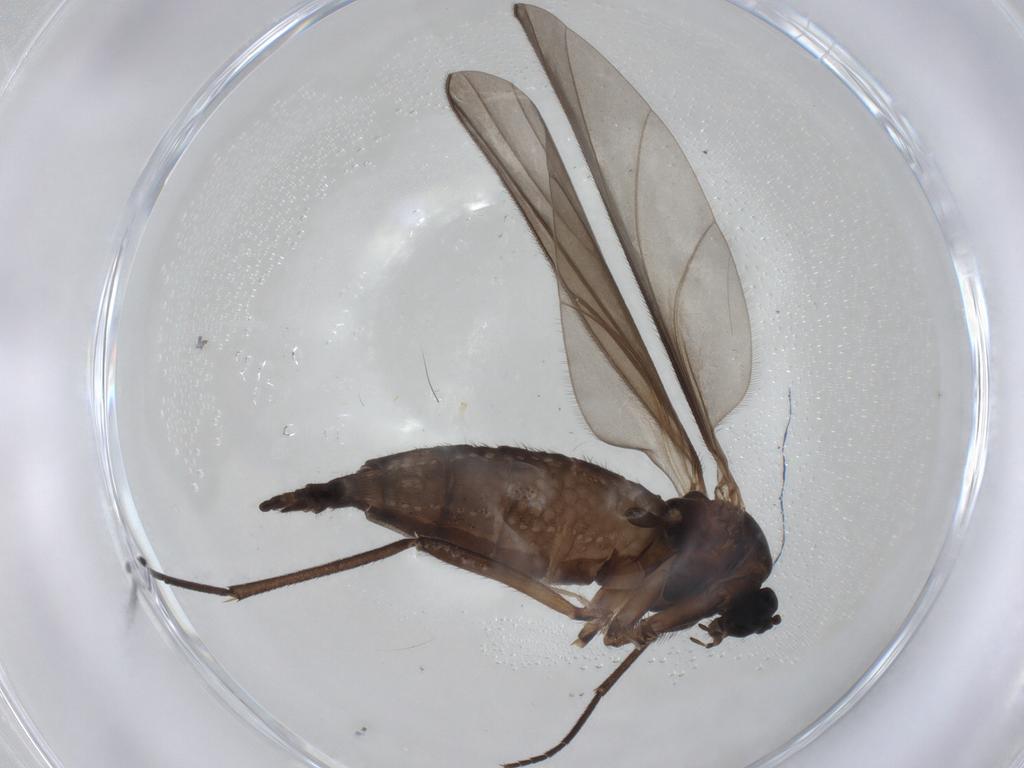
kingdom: Animalia
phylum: Arthropoda
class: Insecta
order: Diptera
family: Sciaridae
